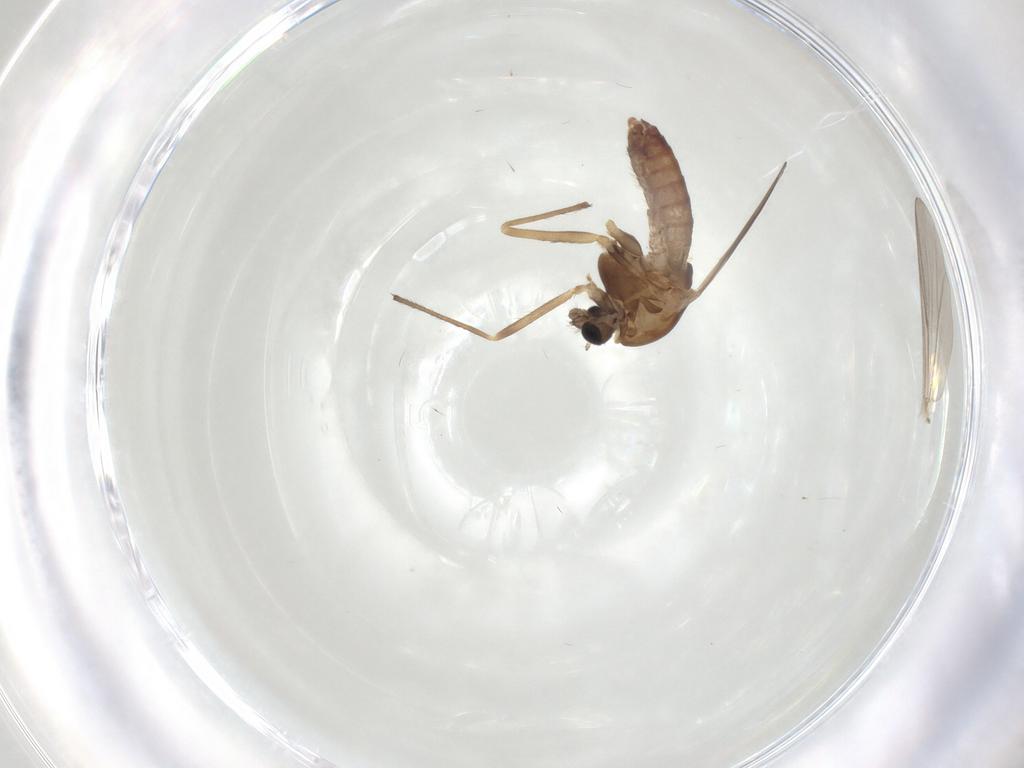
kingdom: Animalia
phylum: Arthropoda
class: Insecta
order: Diptera
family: Chironomidae
